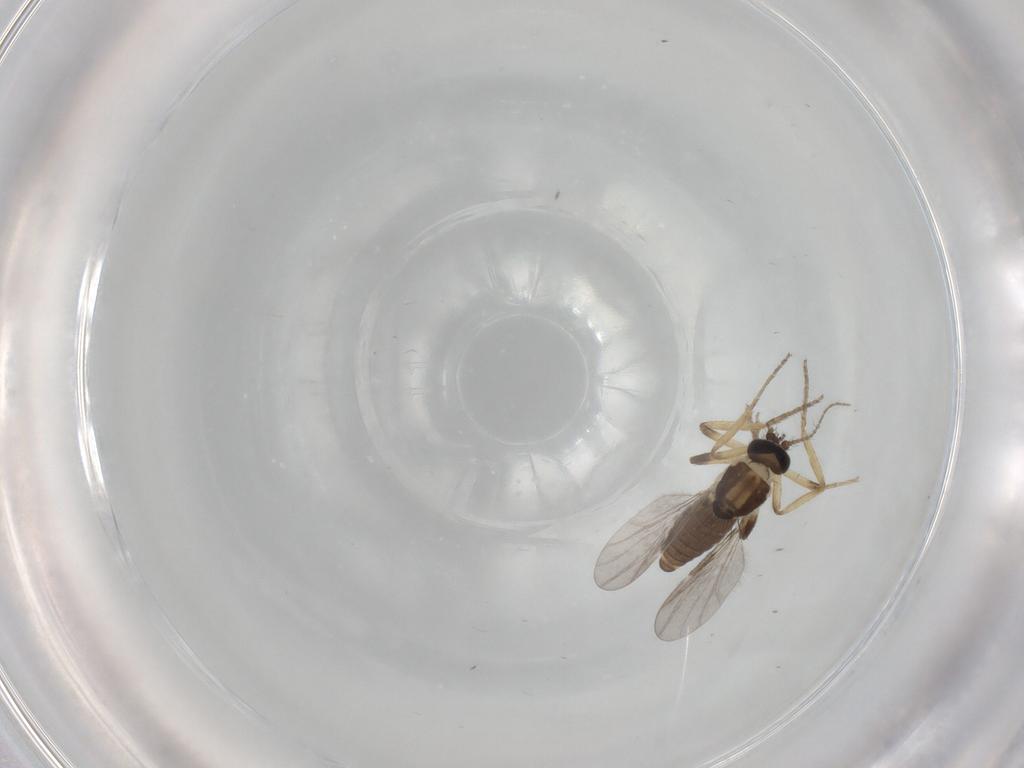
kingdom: Animalia
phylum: Arthropoda
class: Insecta
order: Diptera
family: Ceratopogonidae
